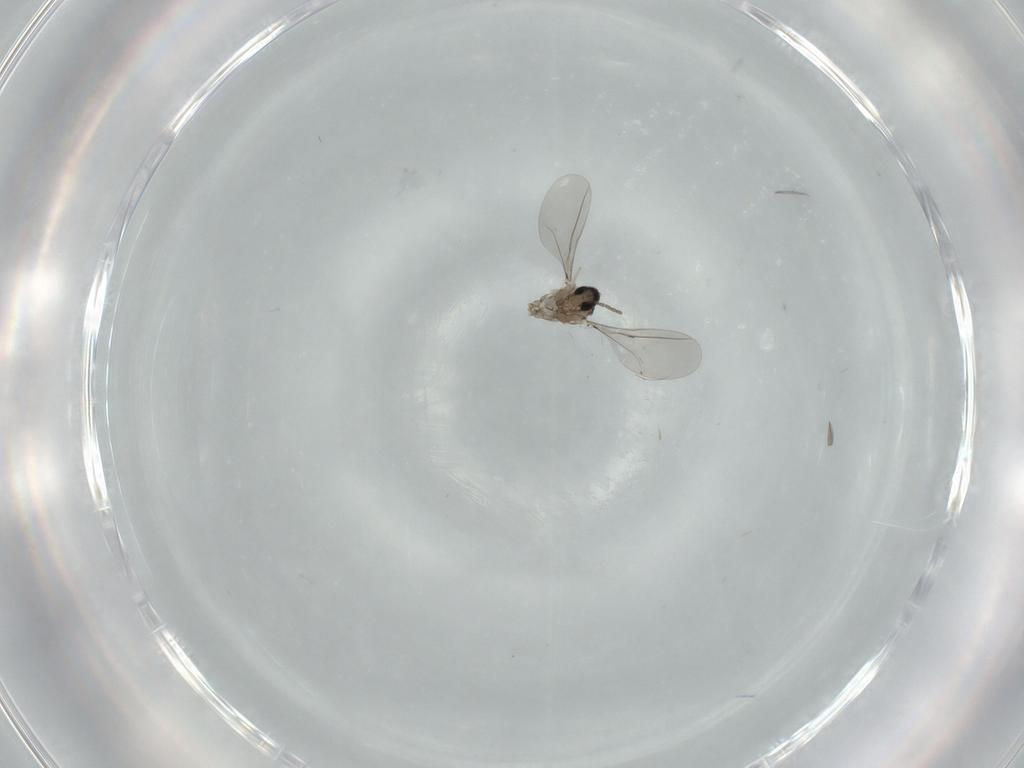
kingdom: Animalia
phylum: Arthropoda
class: Insecta
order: Diptera
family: Cecidomyiidae
